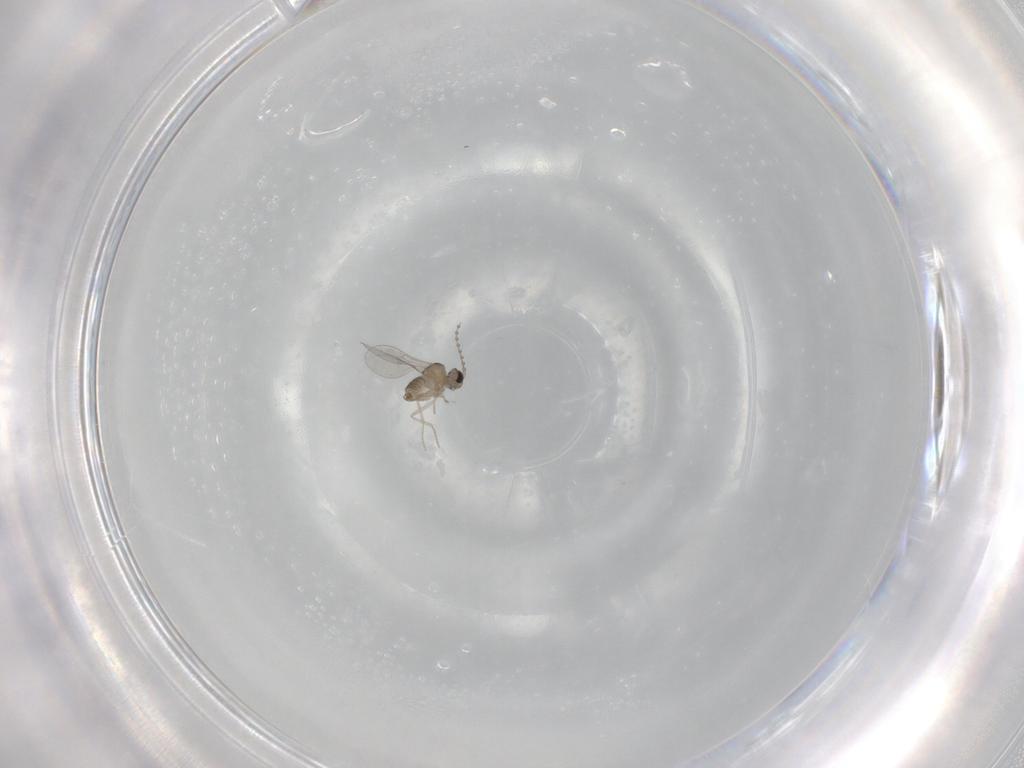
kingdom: Animalia
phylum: Arthropoda
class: Insecta
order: Diptera
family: Cecidomyiidae
